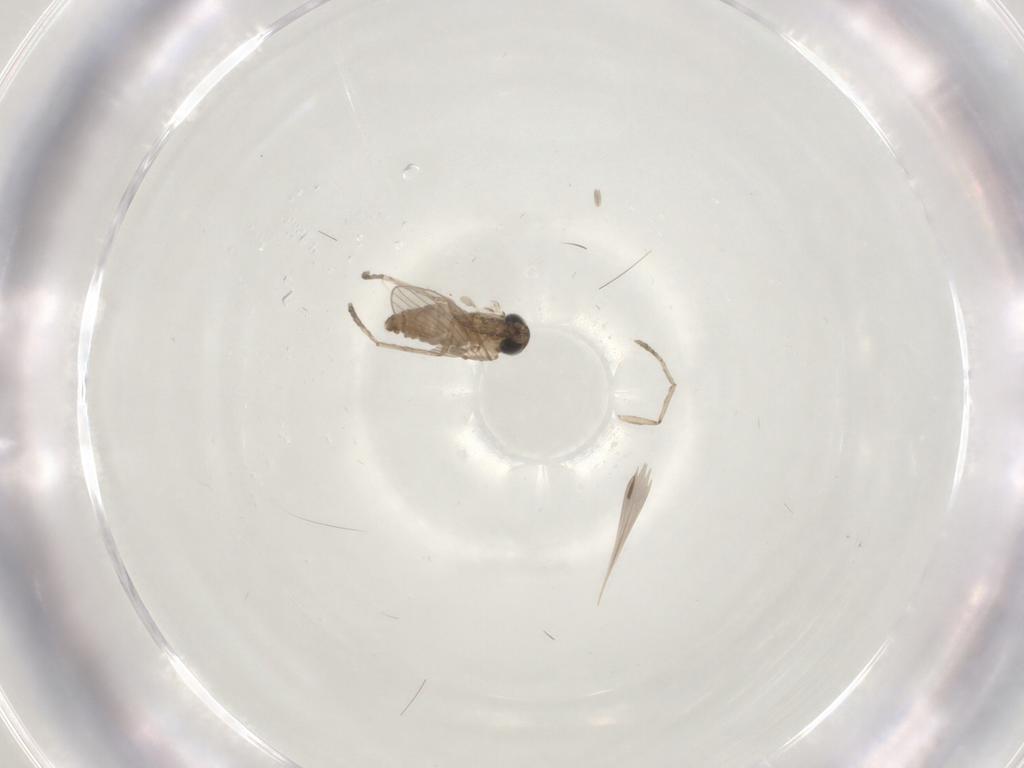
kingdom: Animalia
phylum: Arthropoda
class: Insecta
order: Diptera
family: Psychodidae
